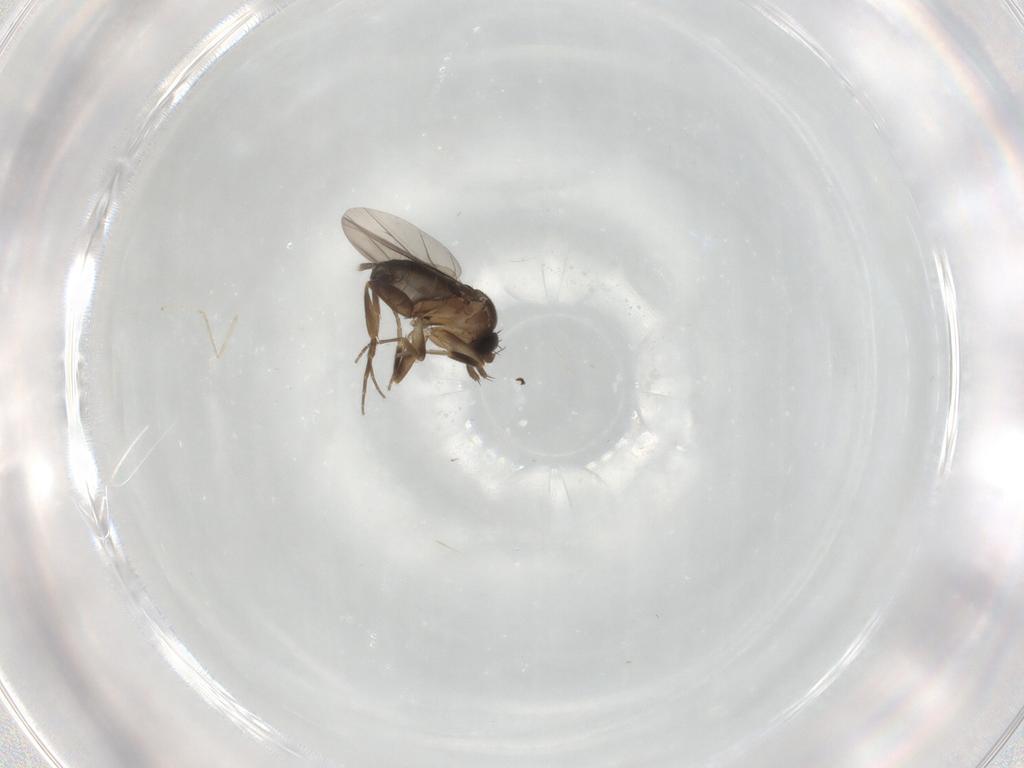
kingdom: Animalia
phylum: Arthropoda
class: Insecta
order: Diptera
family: Phoridae
